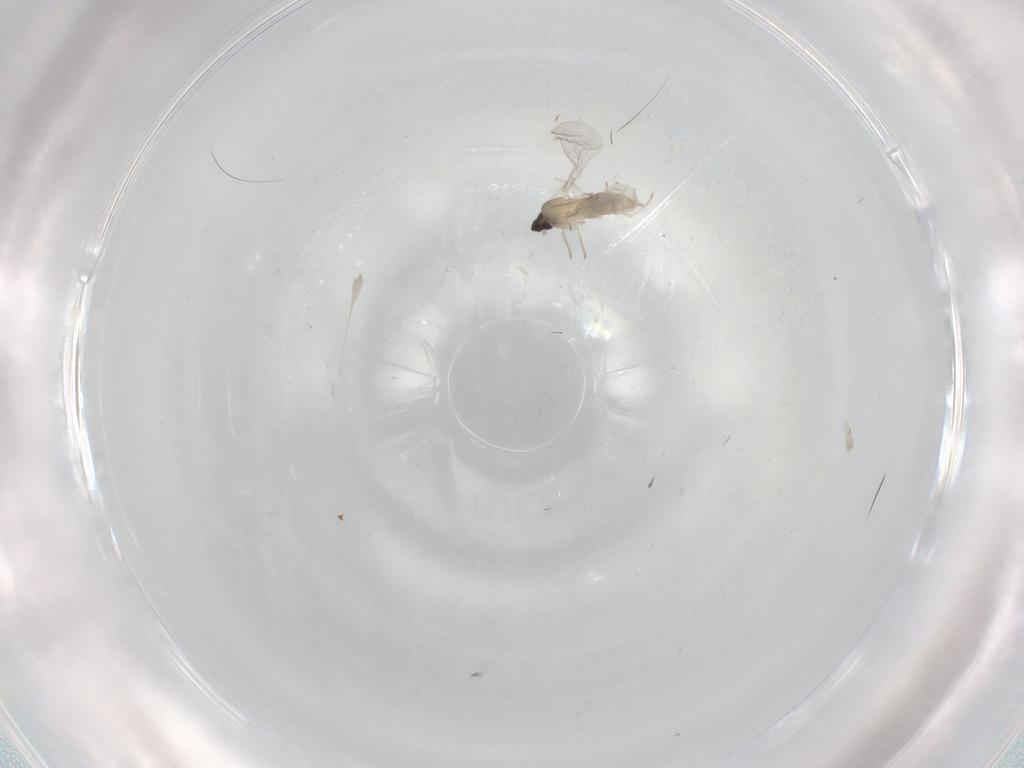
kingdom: Animalia
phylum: Arthropoda
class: Insecta
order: Diptera
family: Phoridae
